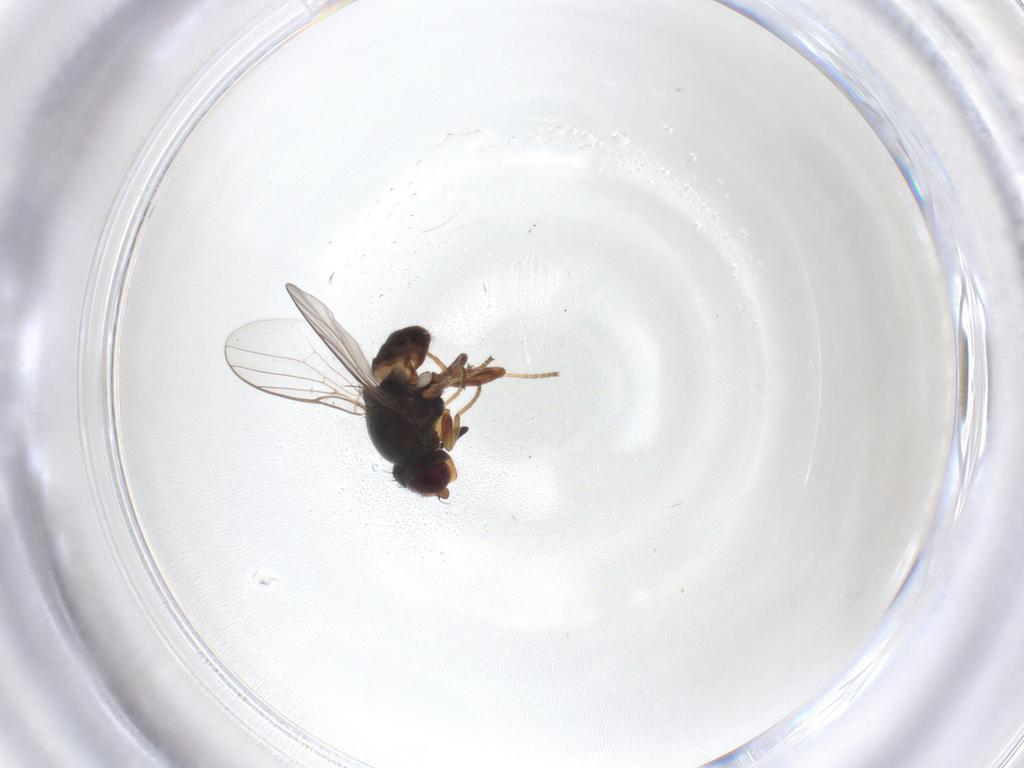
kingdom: Animalia
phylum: Arthropoda
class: Insecta
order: Diptera
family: Chloropidae
